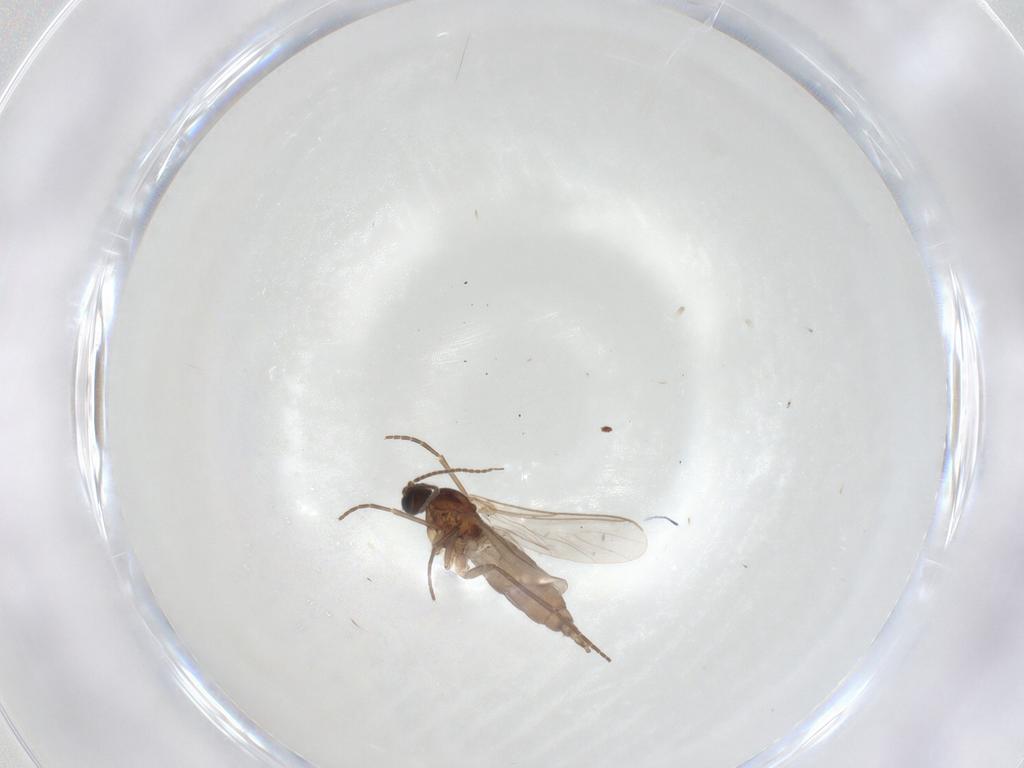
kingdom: Animalia
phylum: Arthropoda
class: Insecta
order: Diptera
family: Sciaridae
